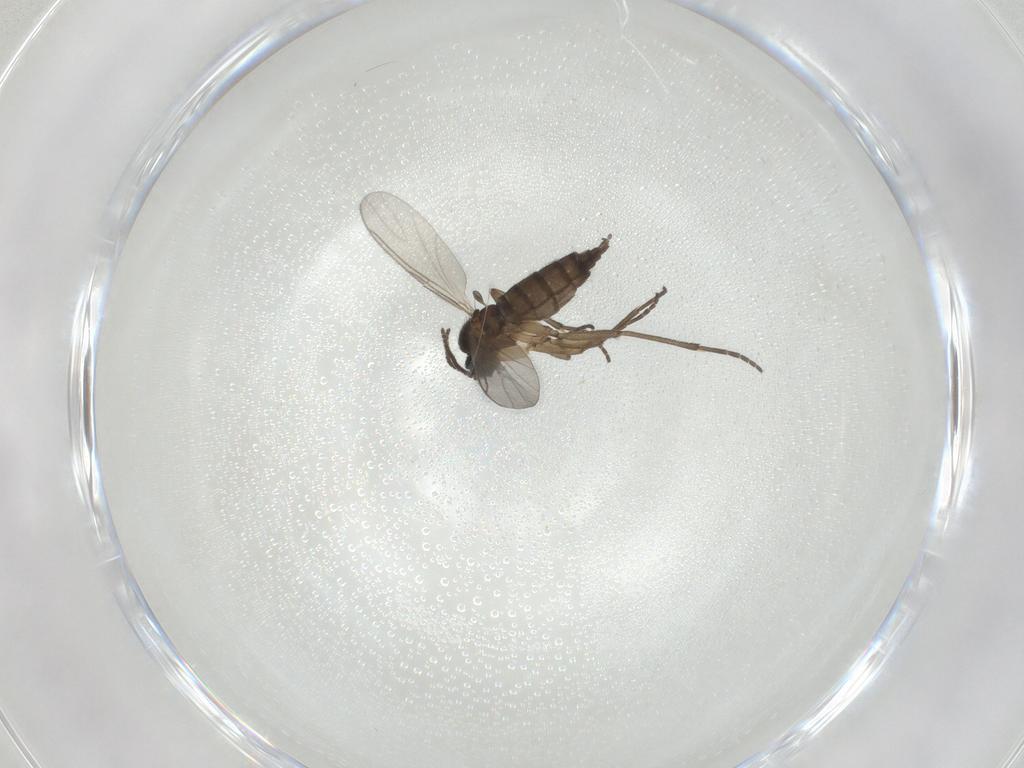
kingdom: Animalia
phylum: Arthropoda
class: Insecta
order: Diptera
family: Sciaridae
